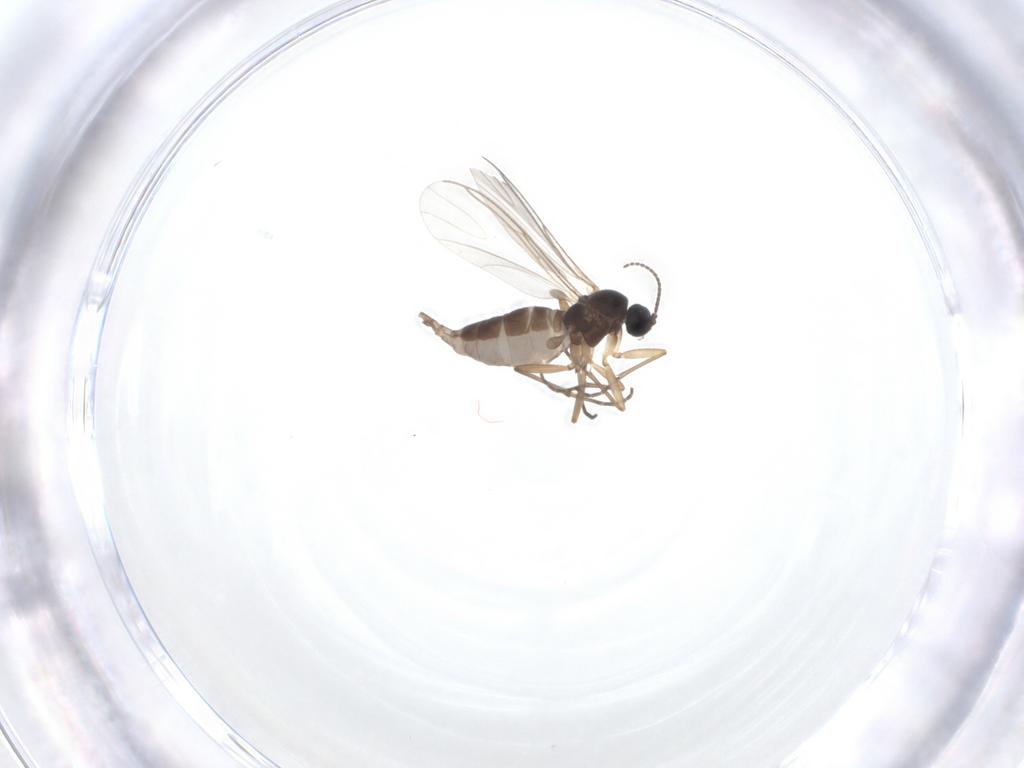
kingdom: Animalia
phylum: Arthropoda
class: Insecta
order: Diptera
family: Sciaridae
